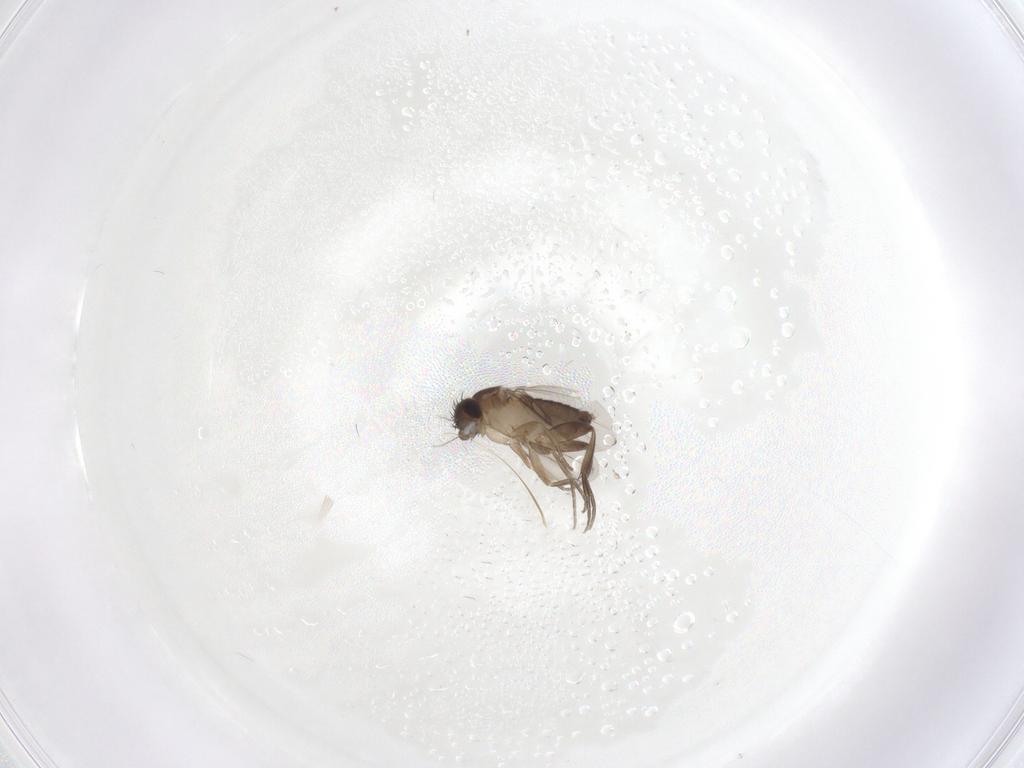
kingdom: Animalia
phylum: Arthropoda
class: Insecta
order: Diptera
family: Phoridae
